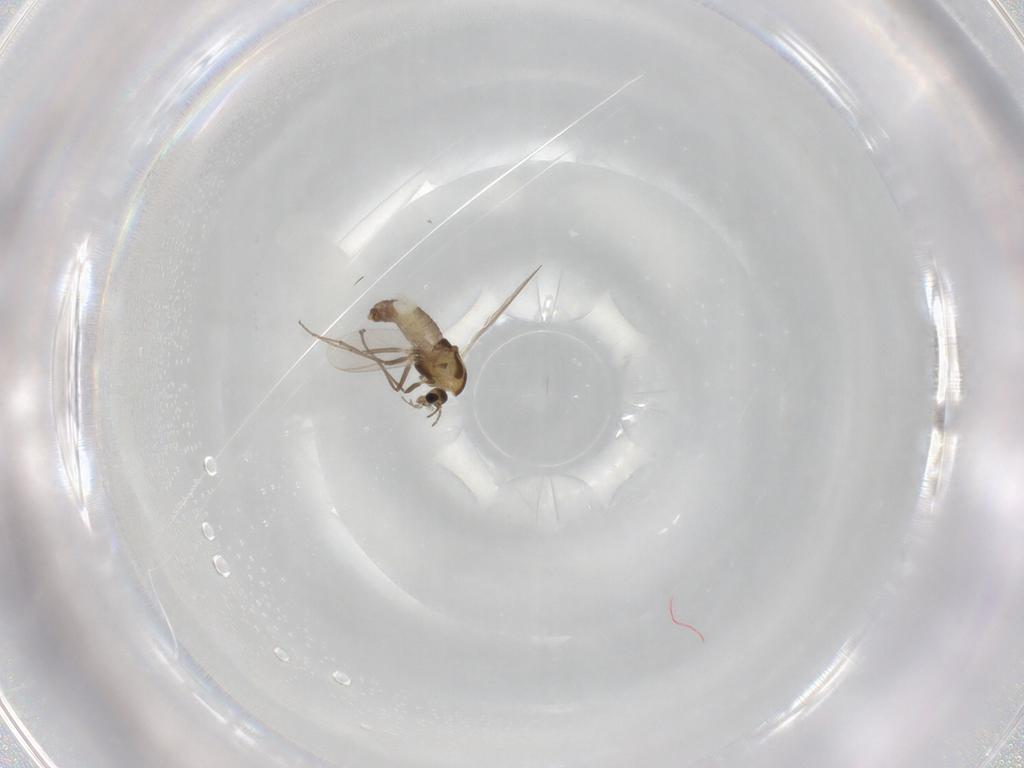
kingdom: Animalia
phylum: Arthropoda
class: Insecta
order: Diptera
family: Chironomidae
